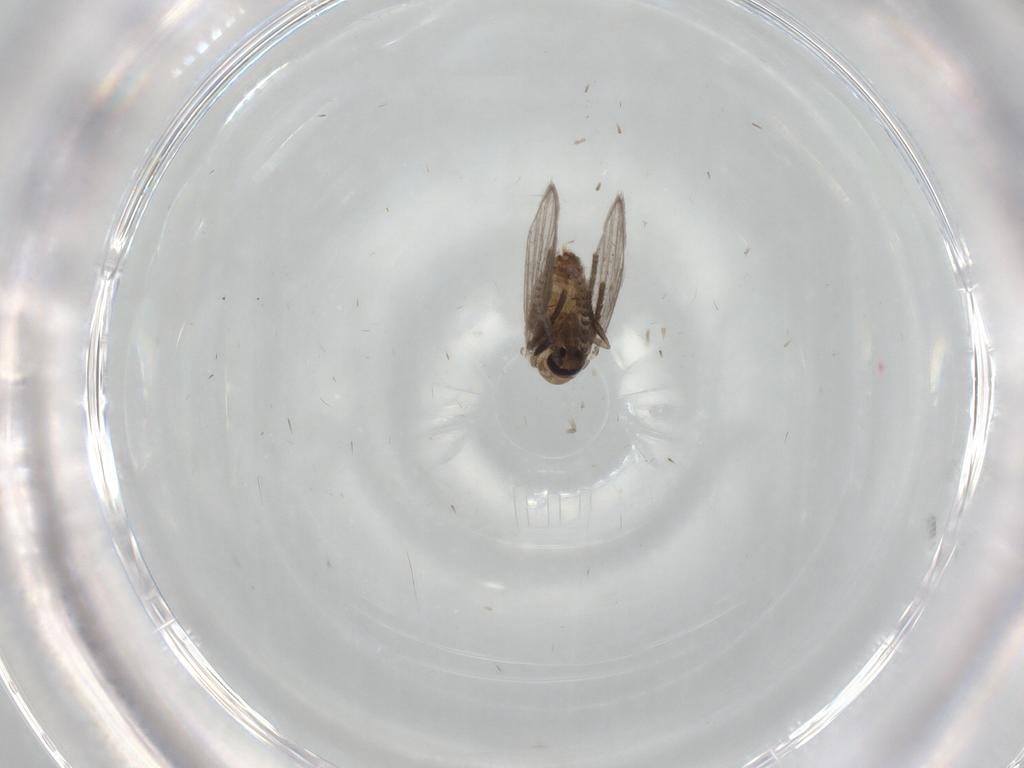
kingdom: Animalia
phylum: Arthropoda
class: Insecta
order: Diptera
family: Psychodidae
